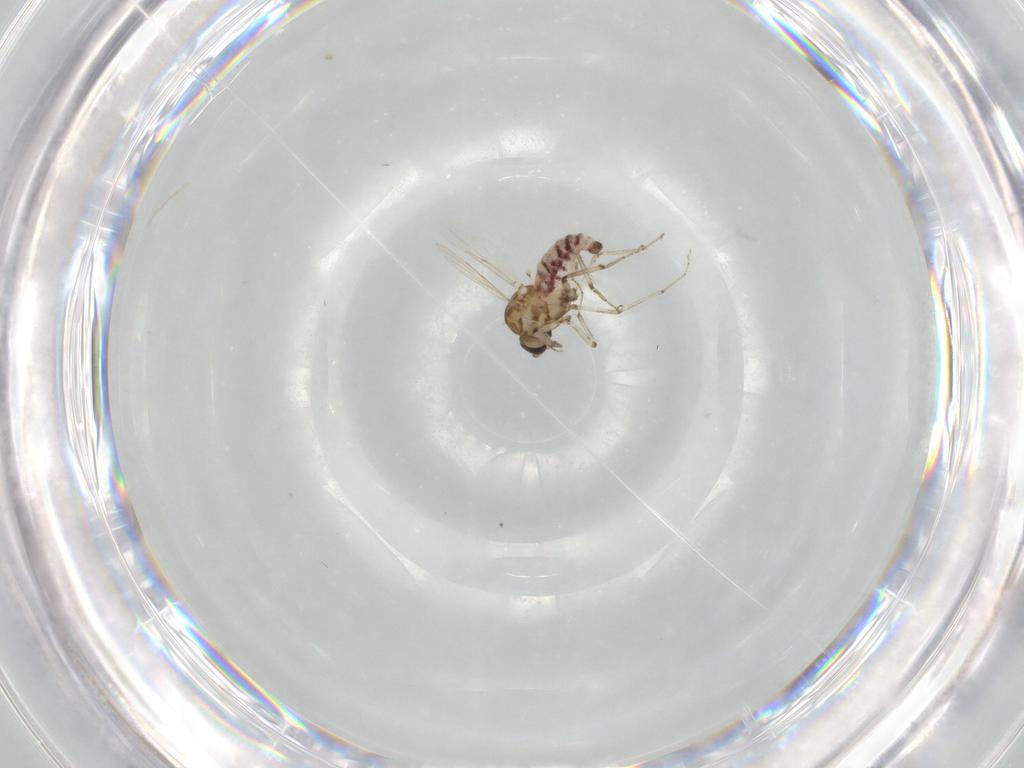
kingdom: Animalia
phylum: Arthropoda
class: Insecta
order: Diptera
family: Ceratopogonidae
